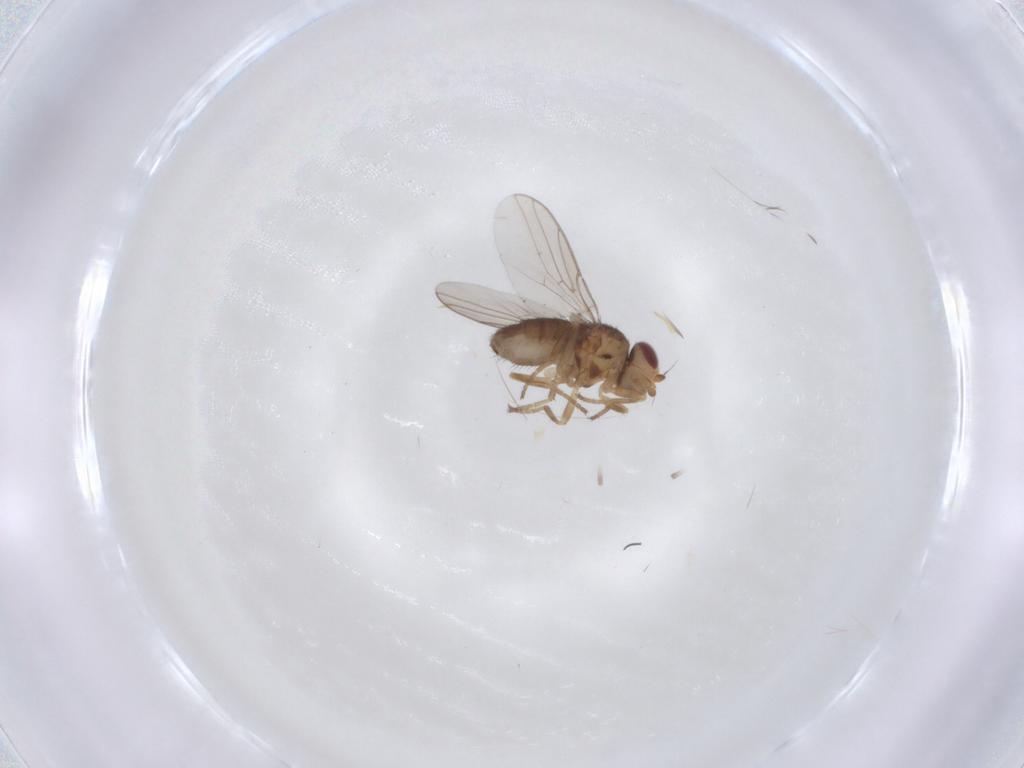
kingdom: Animalia
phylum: Arthropoda
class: Insecta
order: Diptera
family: Chloropidae
